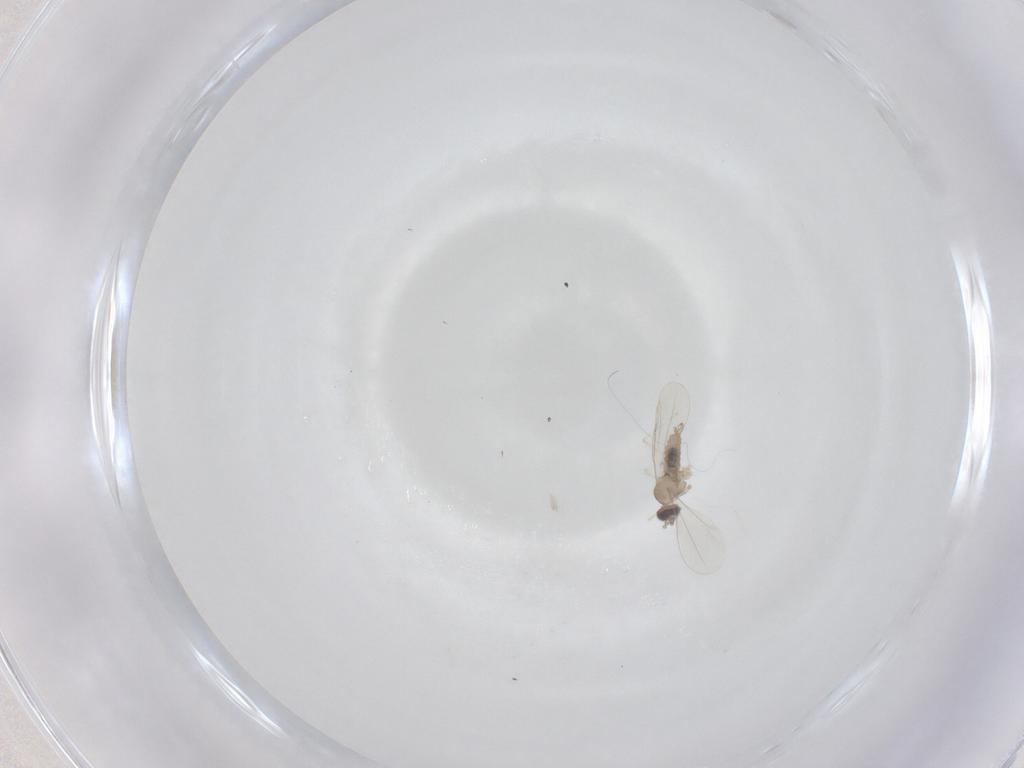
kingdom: Animalia
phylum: Arthropoda
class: Insecta
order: Diptera
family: Cecidomyiidae
